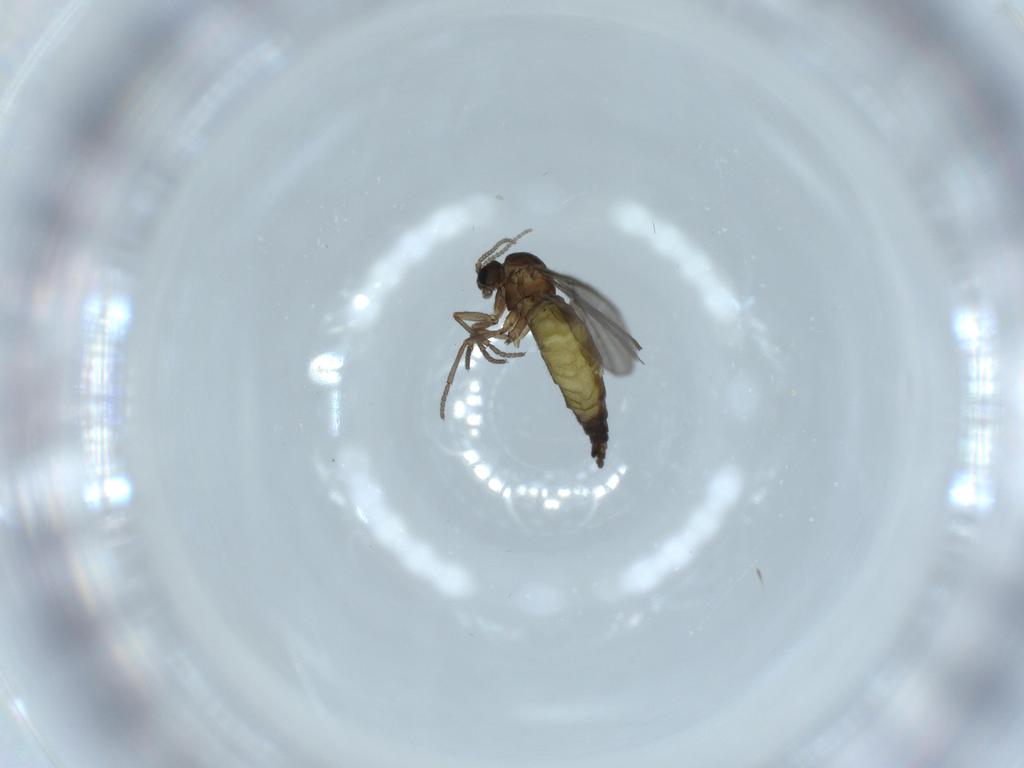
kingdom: Animalia
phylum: Arthropoda
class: Insecta
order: Diptera
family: Sciaridae
